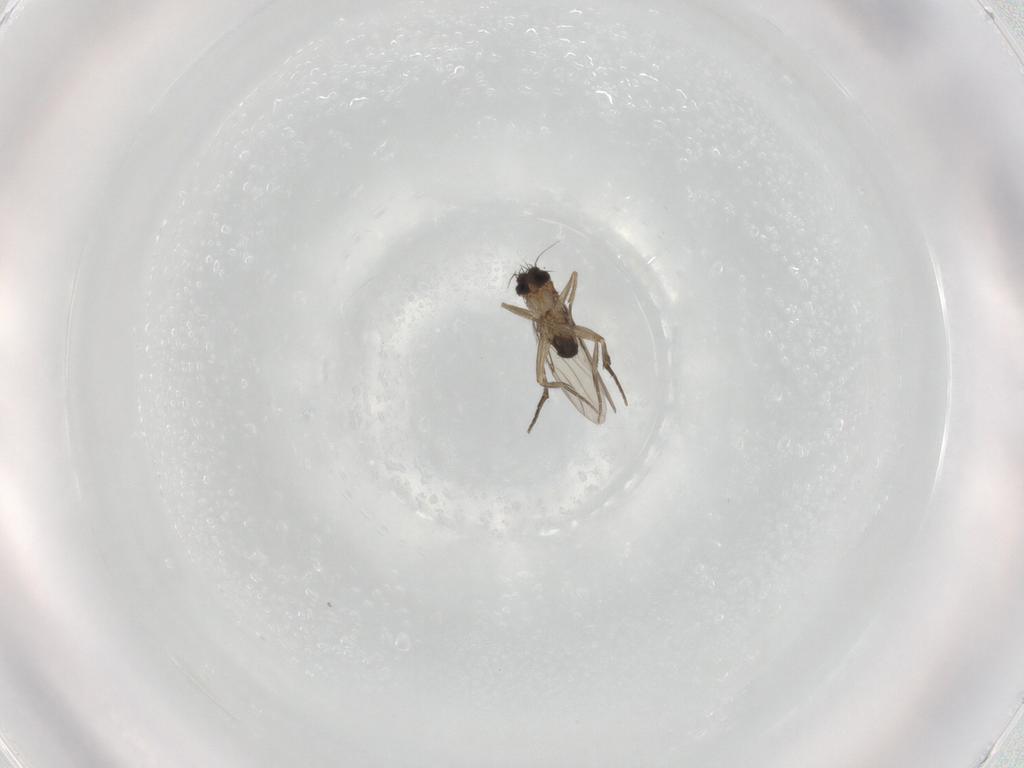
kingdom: Animalia
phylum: Arthropoda
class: Insecta
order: Diptera
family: Phoridae
